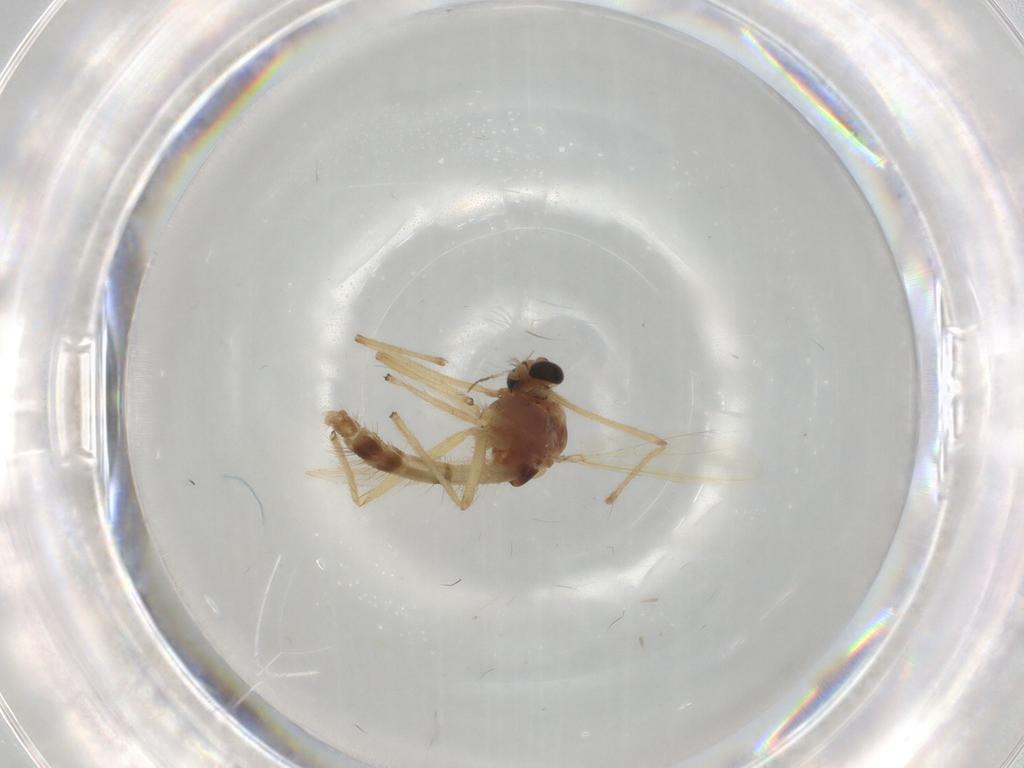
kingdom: Animalia
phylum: Arthropoda
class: Insecta
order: Diptera
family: Chironomidae
